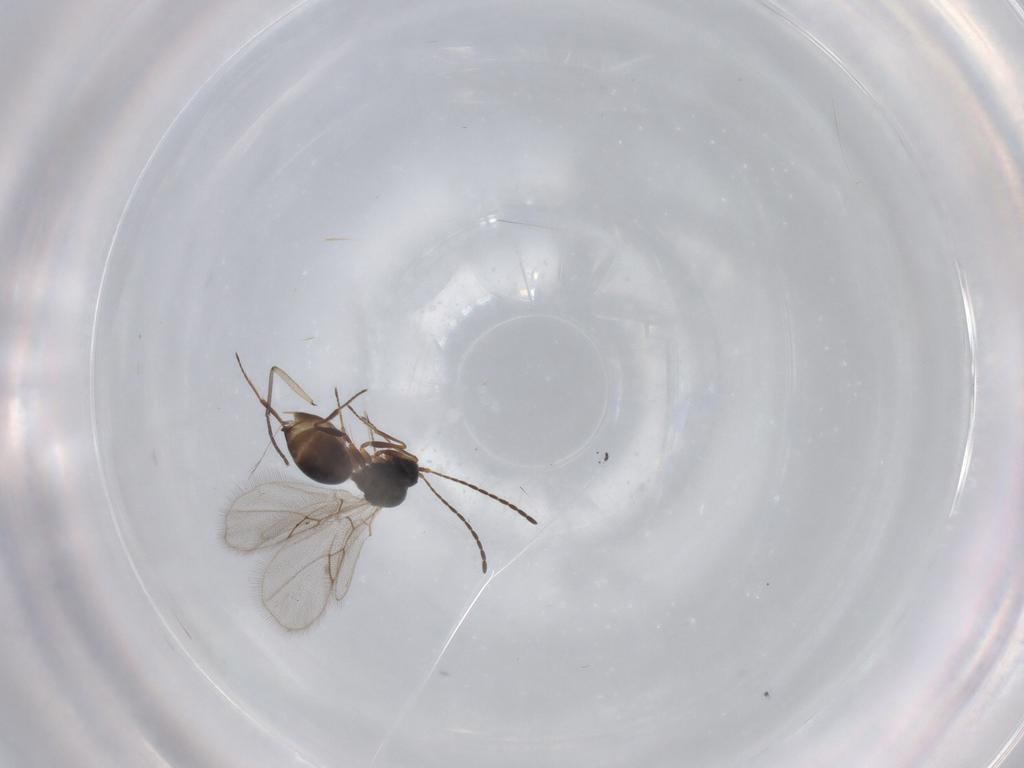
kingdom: Animalia
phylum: Arthropoda
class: Insecta
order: Hymenoptera
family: Figitidae
